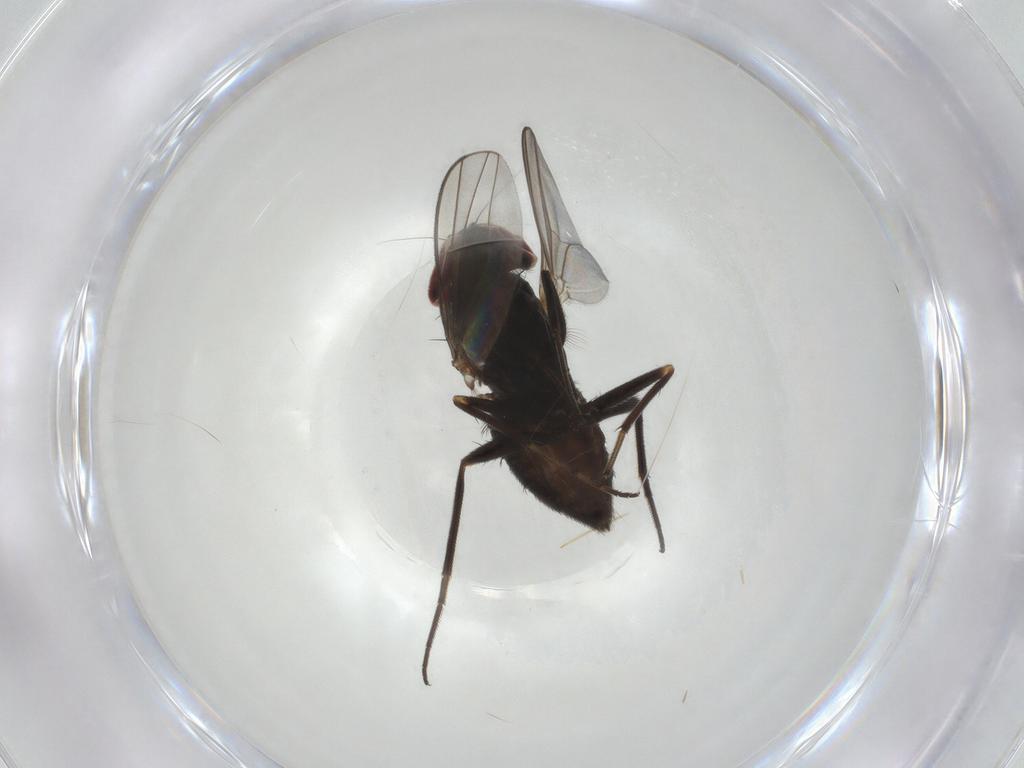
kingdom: Animalia
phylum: Arthropoda
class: Insecta
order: Diptera
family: Dolichopodidae
